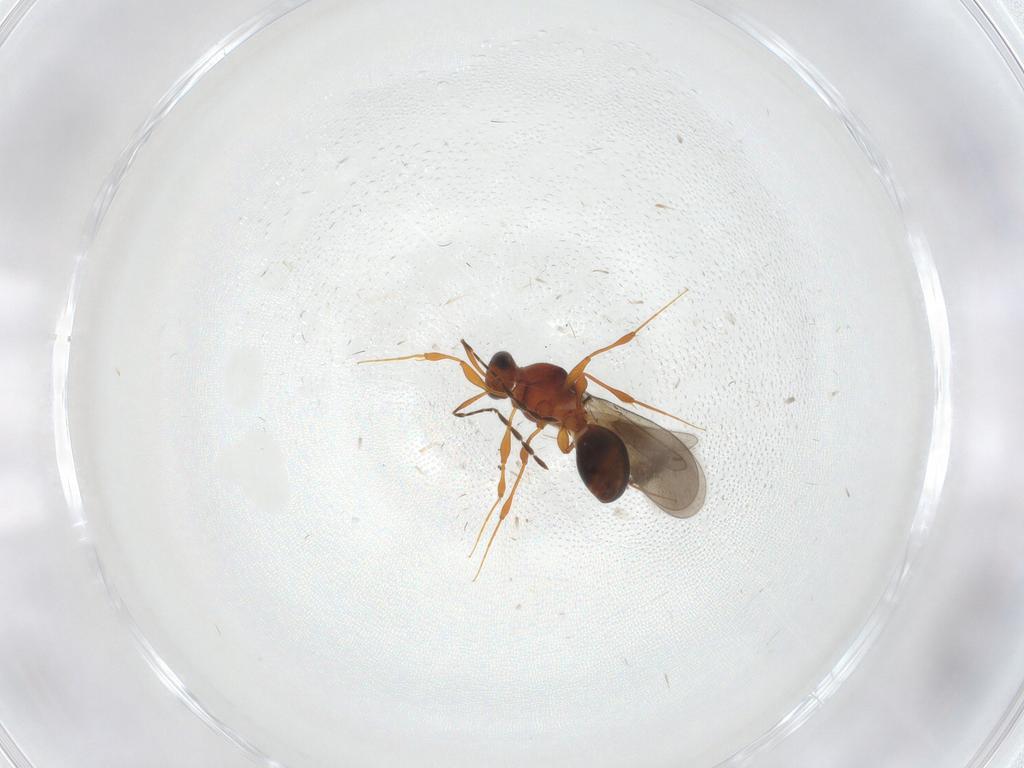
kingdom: Animalia
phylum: Arthropoda
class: Insecta
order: Hymenoptera
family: Platygastridae
